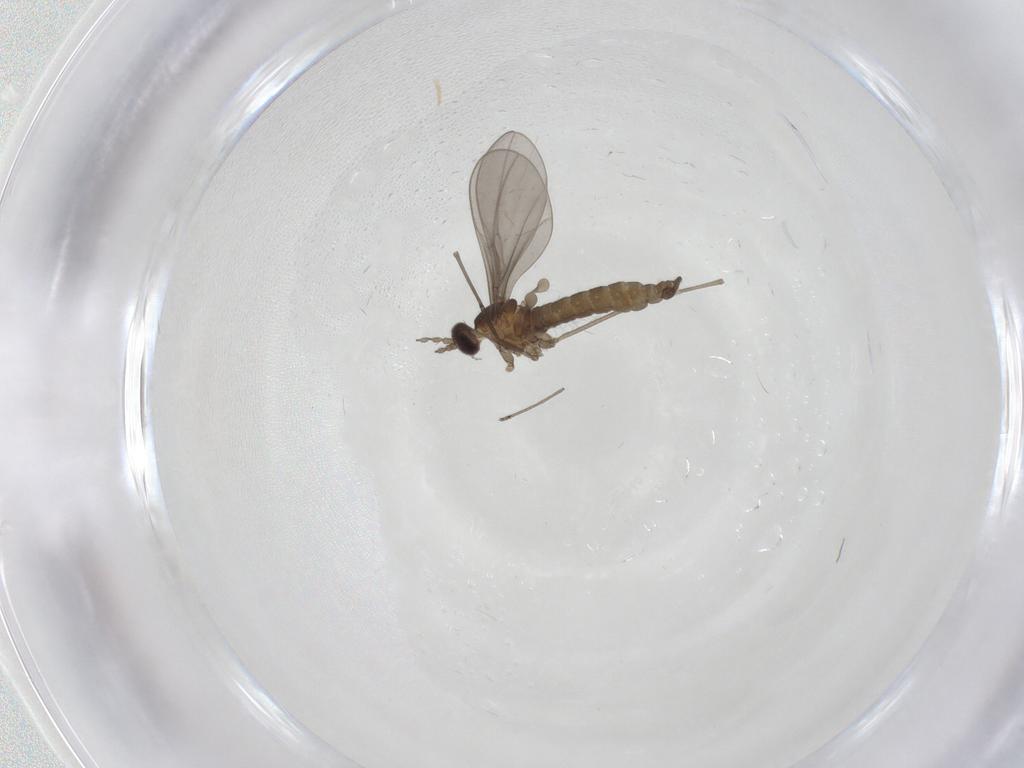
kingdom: Animalia
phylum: Arthropoda
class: Insecta
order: Diptera
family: Cecidomyiidae
